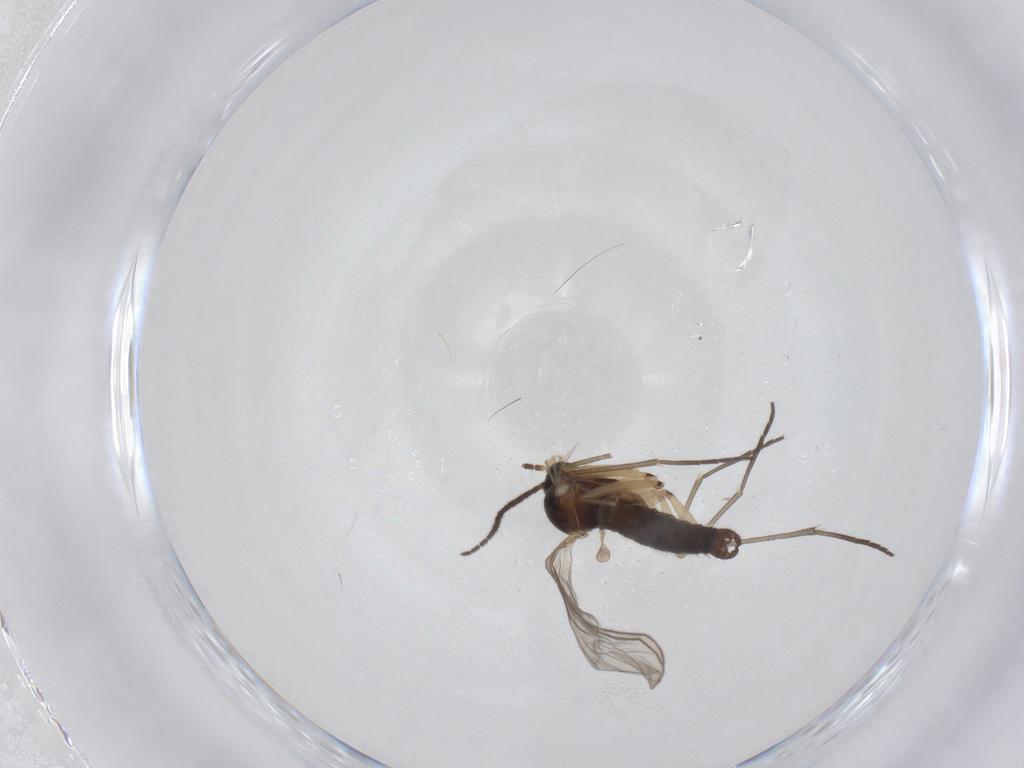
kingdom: Animalia
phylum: Arthropoda
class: Insecta
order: Diptera
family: Sciaridae
